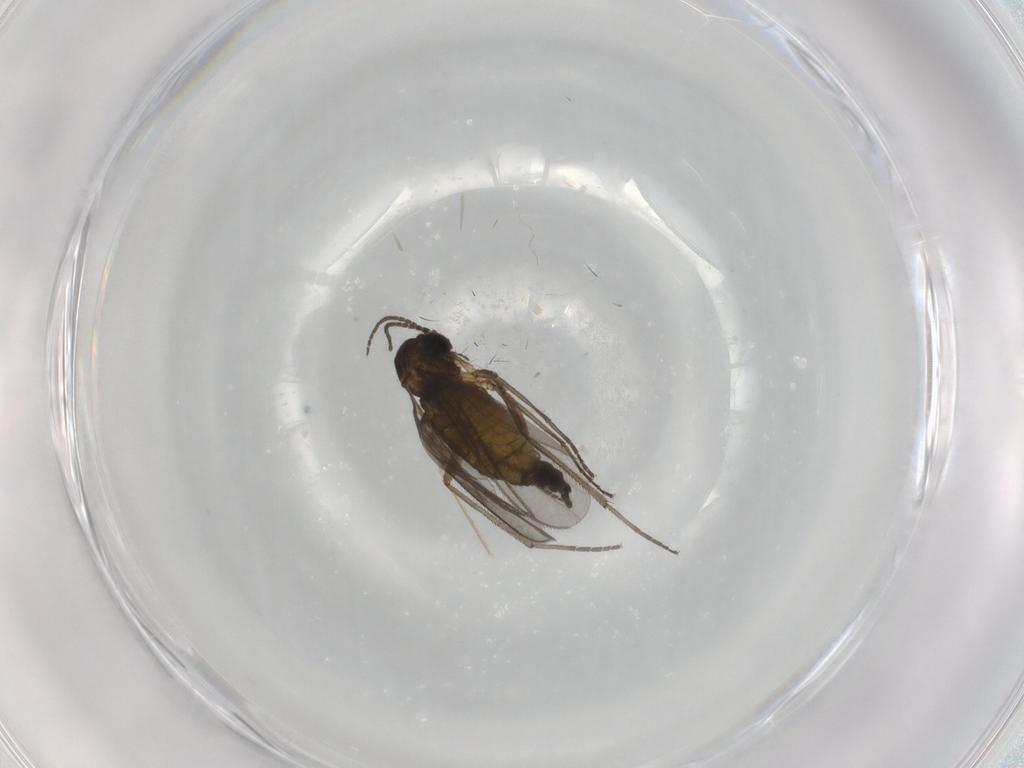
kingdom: Animalia
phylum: Arthropoda
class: Insecta
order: Diptera
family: Sciaridae
